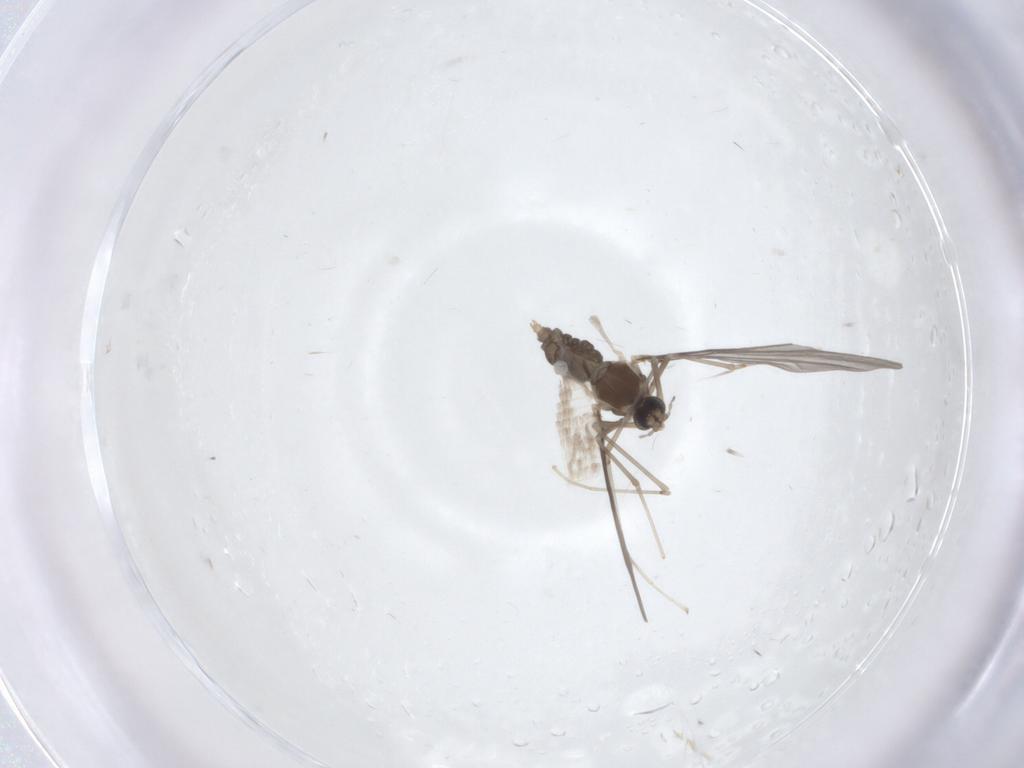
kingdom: Animalia
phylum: Arthropoda
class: Insecta
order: Diptera
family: Cecidomyiidae
